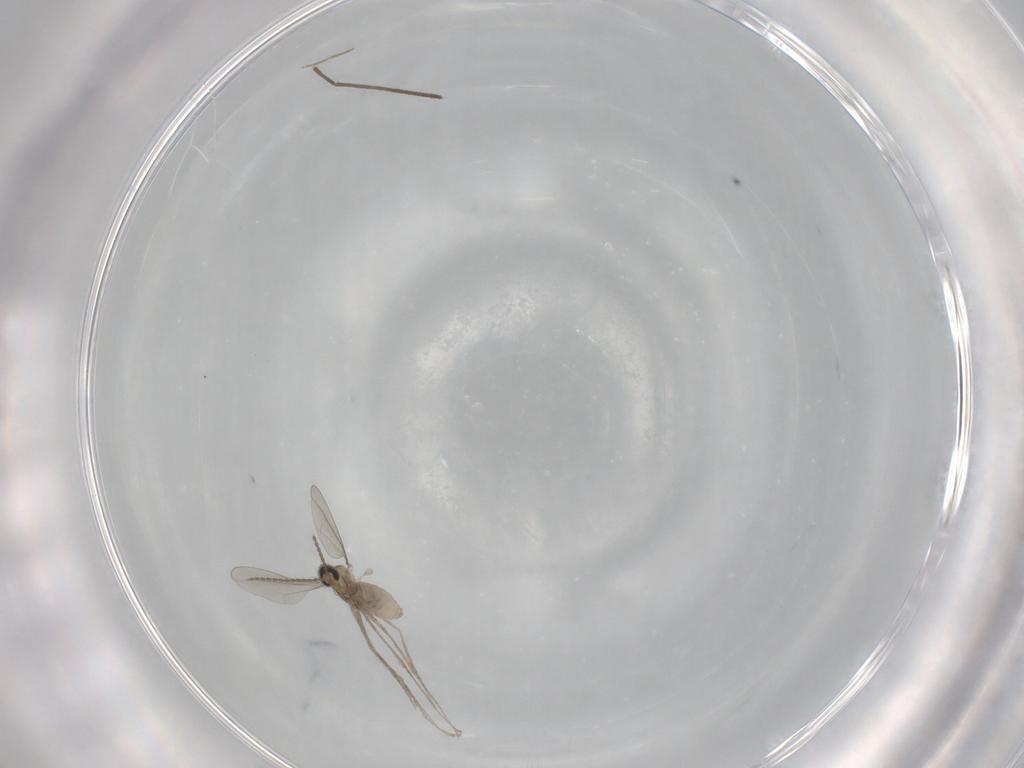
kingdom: Animalia
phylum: Arthropoda
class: Insecta
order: Diptera
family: Chironomidae
